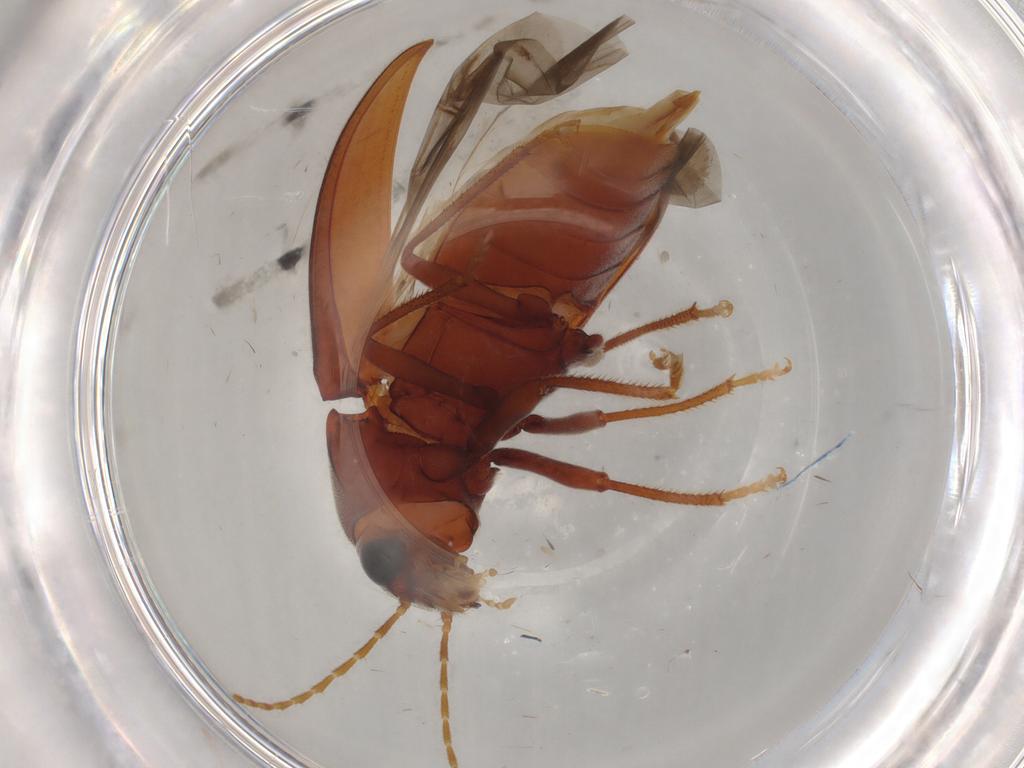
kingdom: Animalia
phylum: Arthropoda
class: Insecta
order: Coleoptera
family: Ptilodactylidae
